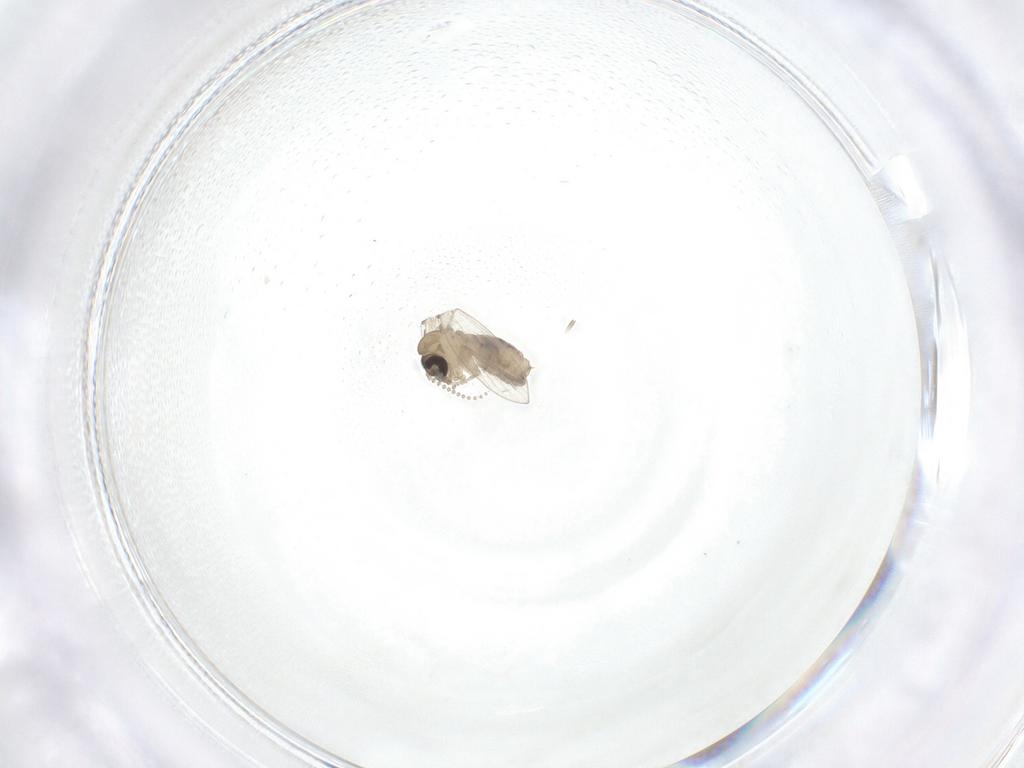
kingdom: Animalia
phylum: Arthropoda
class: Insecta
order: Diptera
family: Psychodidae
